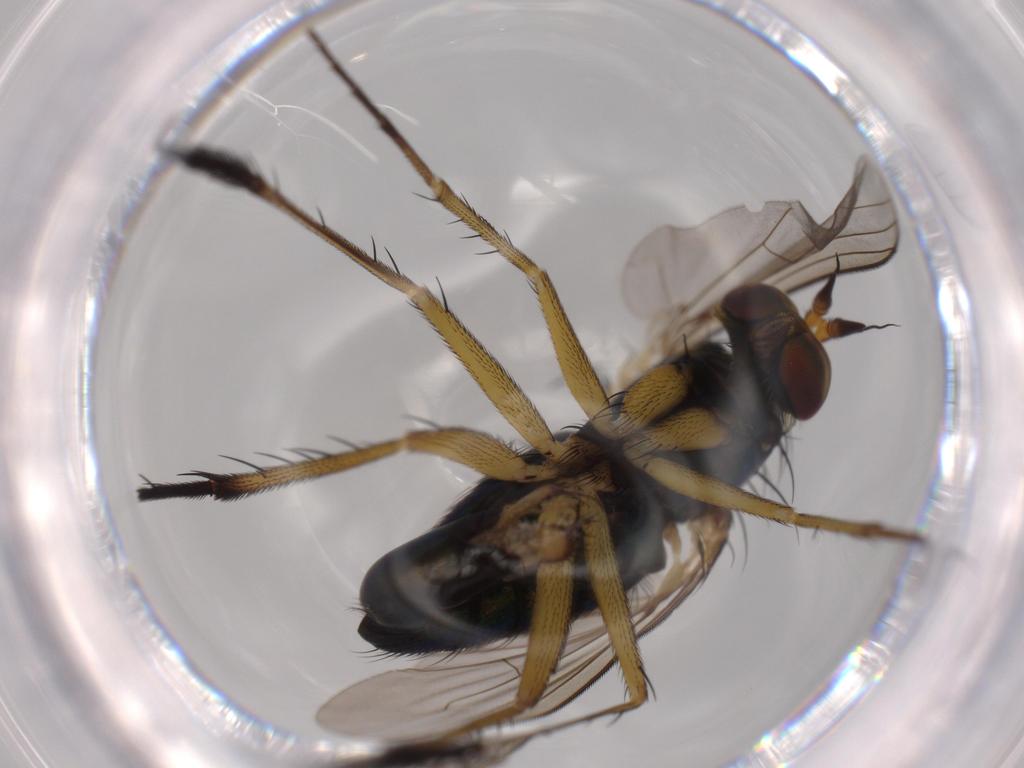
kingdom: Animalia
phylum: Arthropoda
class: Insecta
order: Diptera
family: Dolichopodidae
